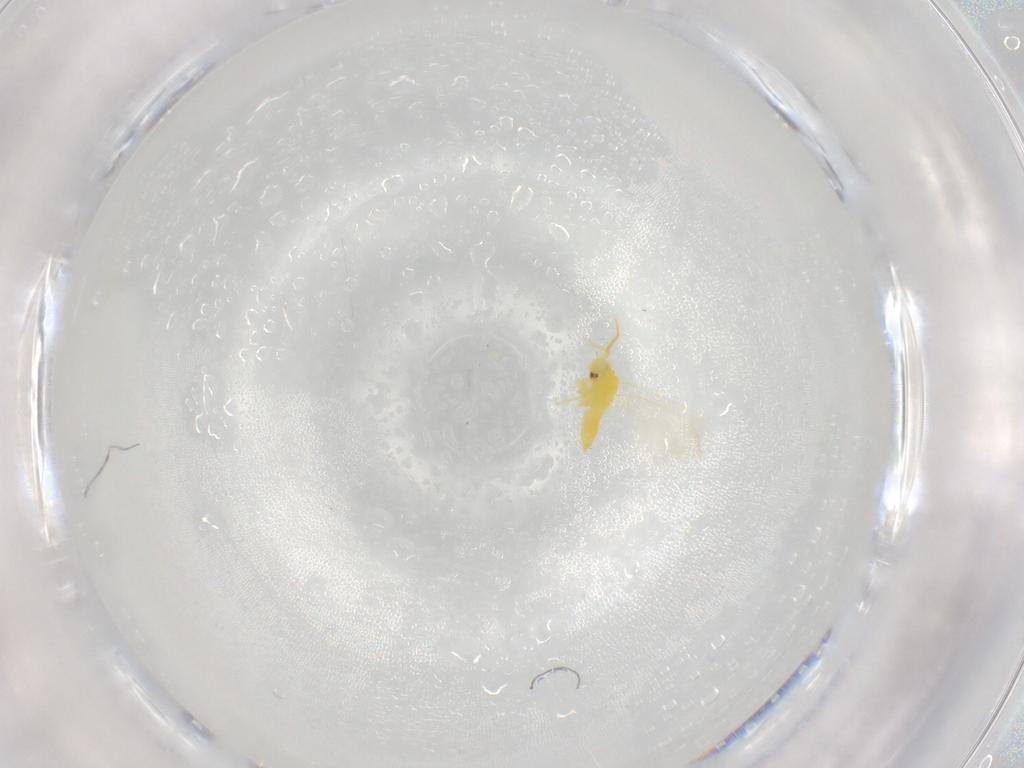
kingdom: Animalia
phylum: Arthropoda
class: Insecta
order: Hemiptera
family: Aleyrodidae
